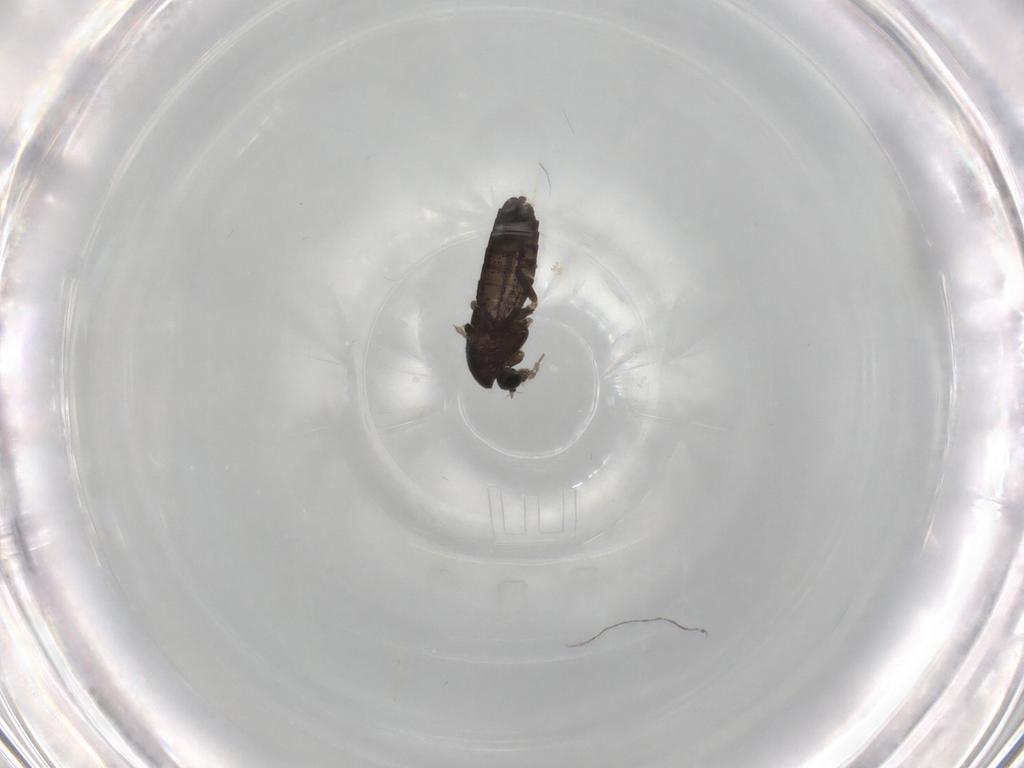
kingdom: Animalia
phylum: Arthropoda
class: Insecta
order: Diptera
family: Chironomidae
